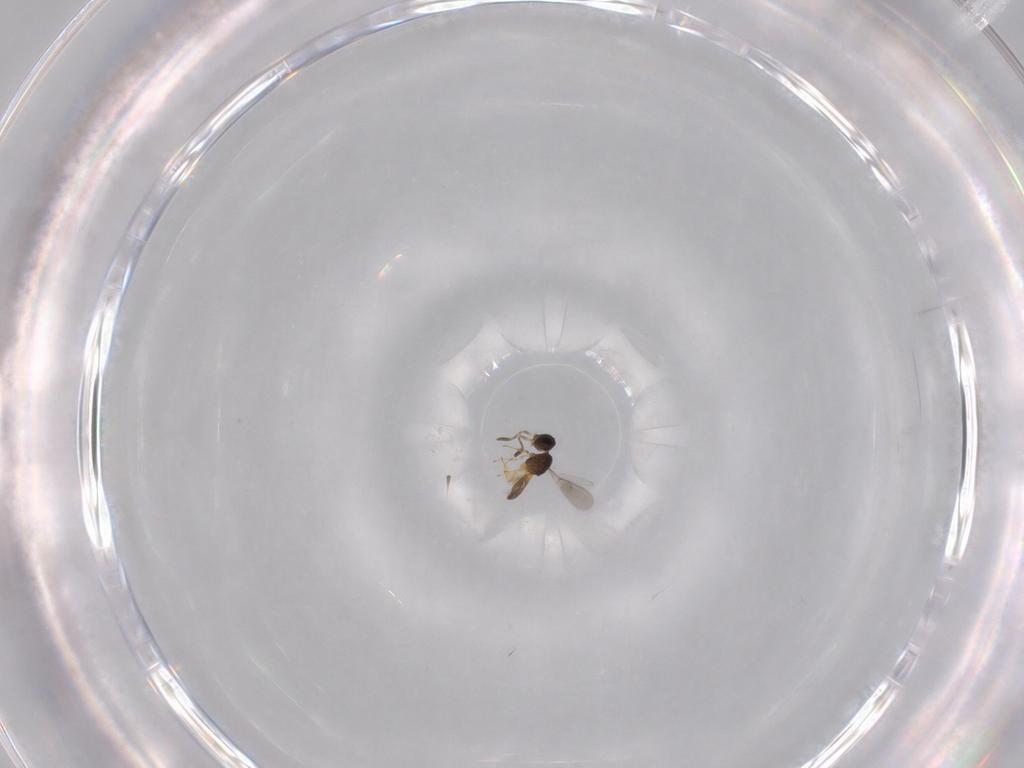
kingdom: Animalia
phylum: Arthropoda
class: Insecta
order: Hymenoptera
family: Scelionidae
